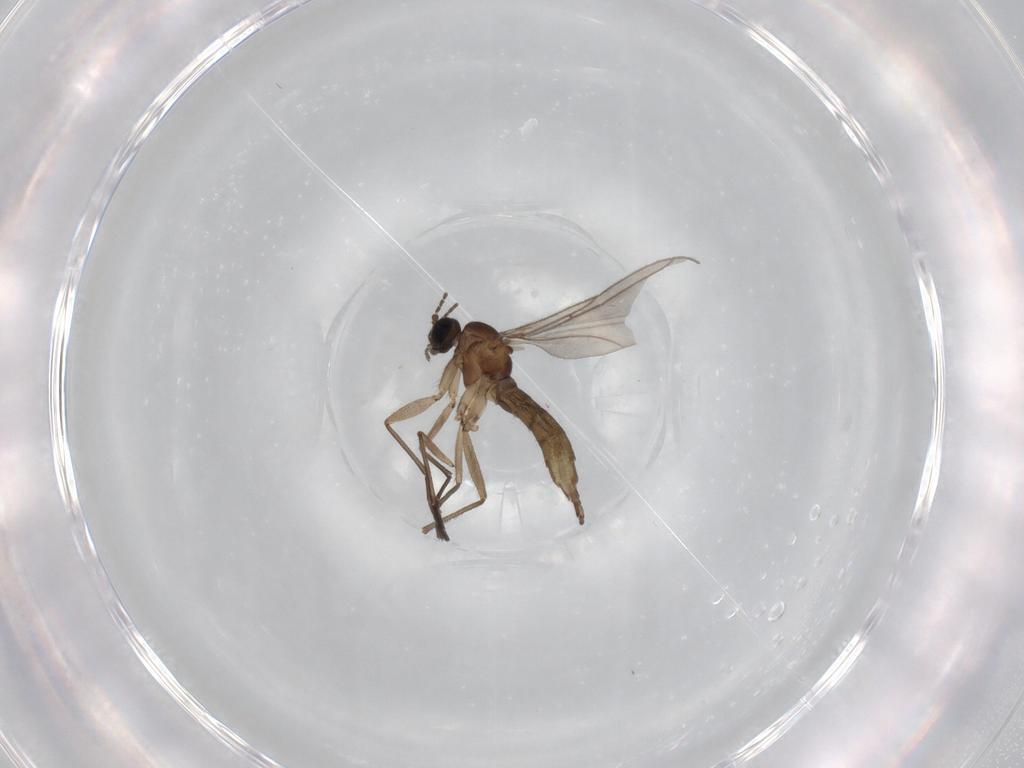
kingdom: Animalia
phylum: Arthropoda
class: Insecta
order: Diptera
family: Sciaridae
